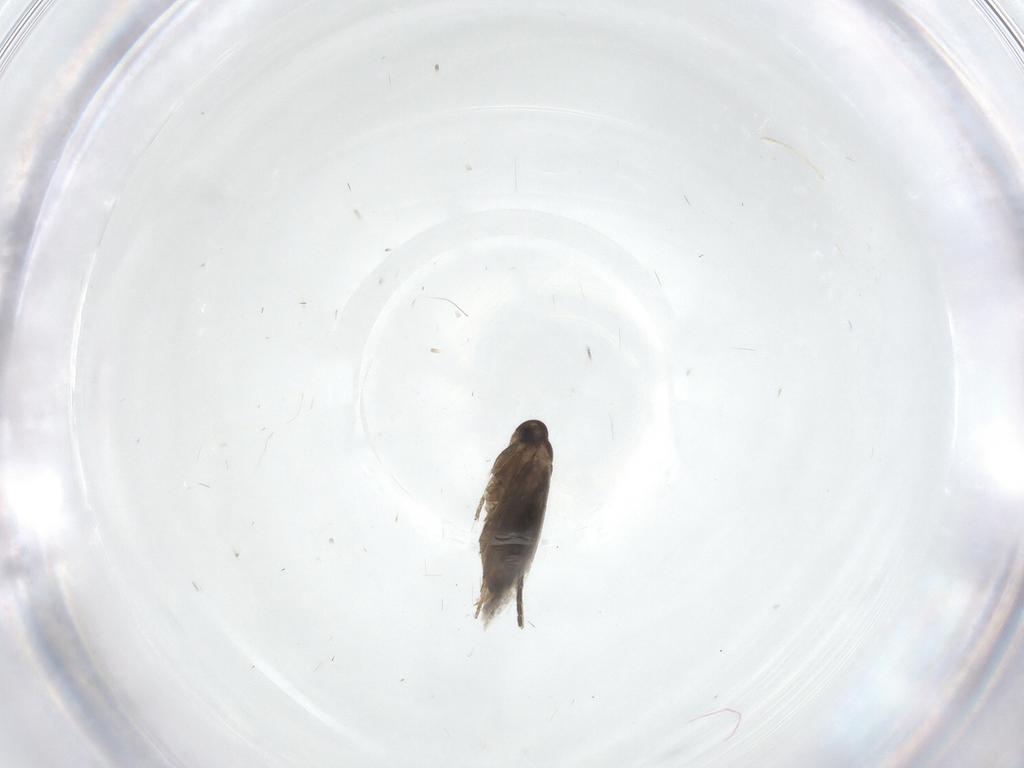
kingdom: Animalia
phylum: Arthropoda
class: Insecta
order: Lepidoptera
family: Heliozelidae
